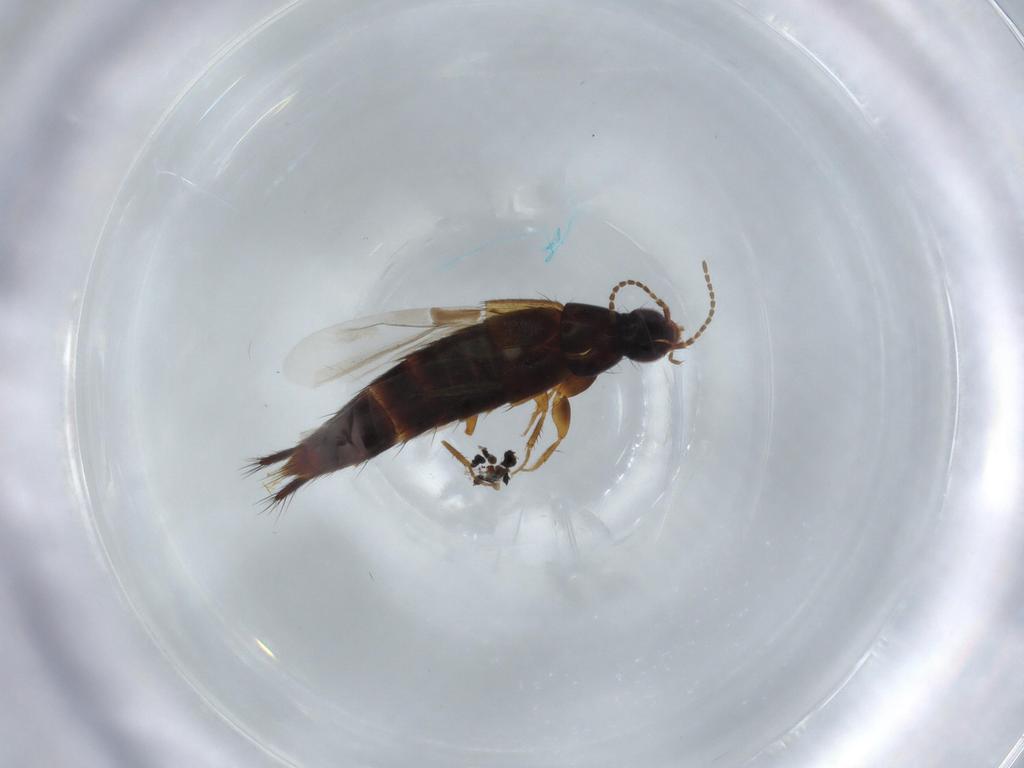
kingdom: Animalia
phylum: Arthropoda
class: Insecta
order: Coleoptera
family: Staphylinidae
